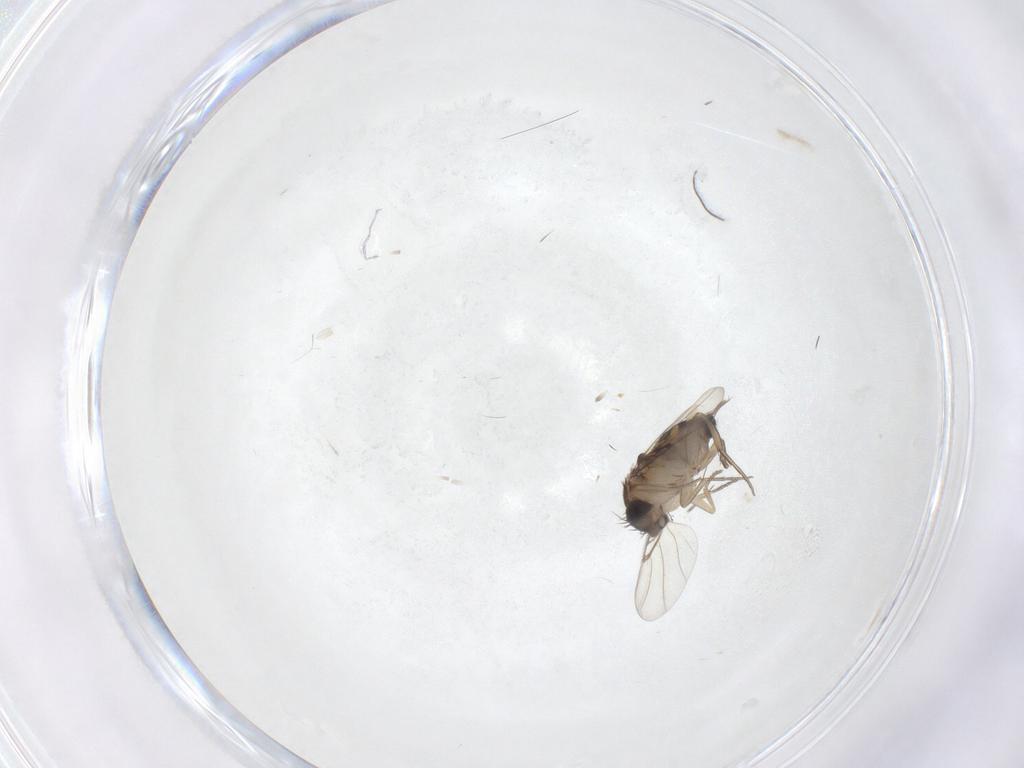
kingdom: Animalia
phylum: Arthropoda
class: Insecta
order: Diptera
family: Phoridae
